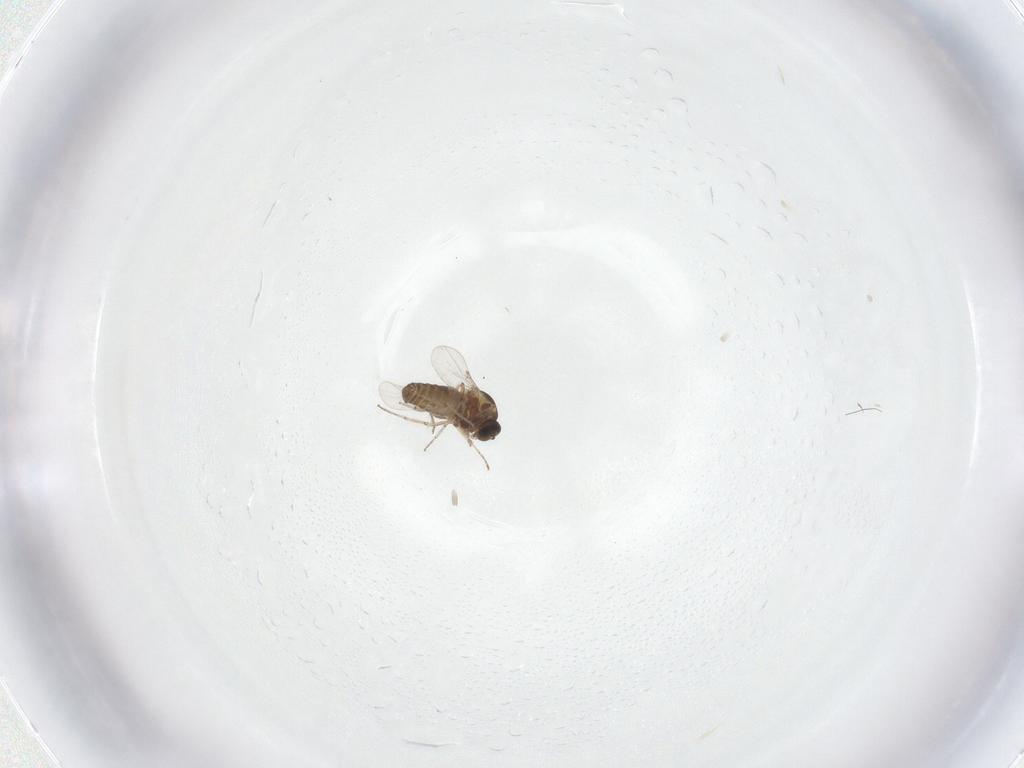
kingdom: Animalia
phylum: Arthropoda
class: Insecta
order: Diptera
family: Ceratopogonidae
